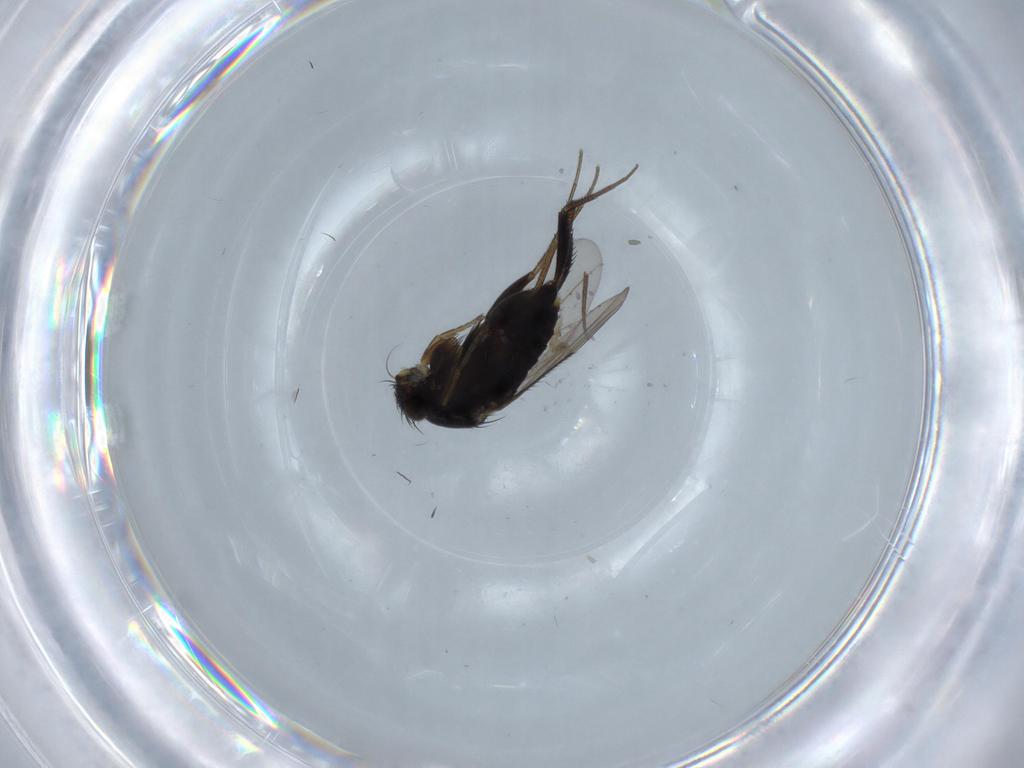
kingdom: Animalia
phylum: Arthropoda
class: Insecta
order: Diptera
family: Phoridae
